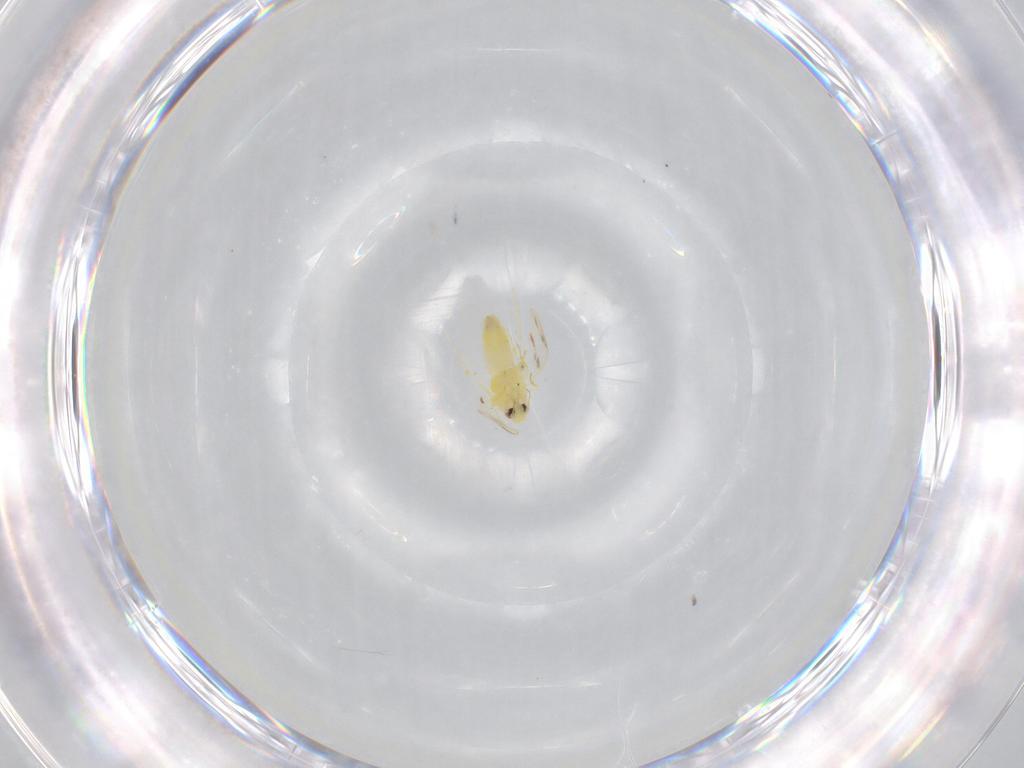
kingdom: Animalia
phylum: Arthropoda
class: Insecta
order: Hemiptera
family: Aleyrodidae
